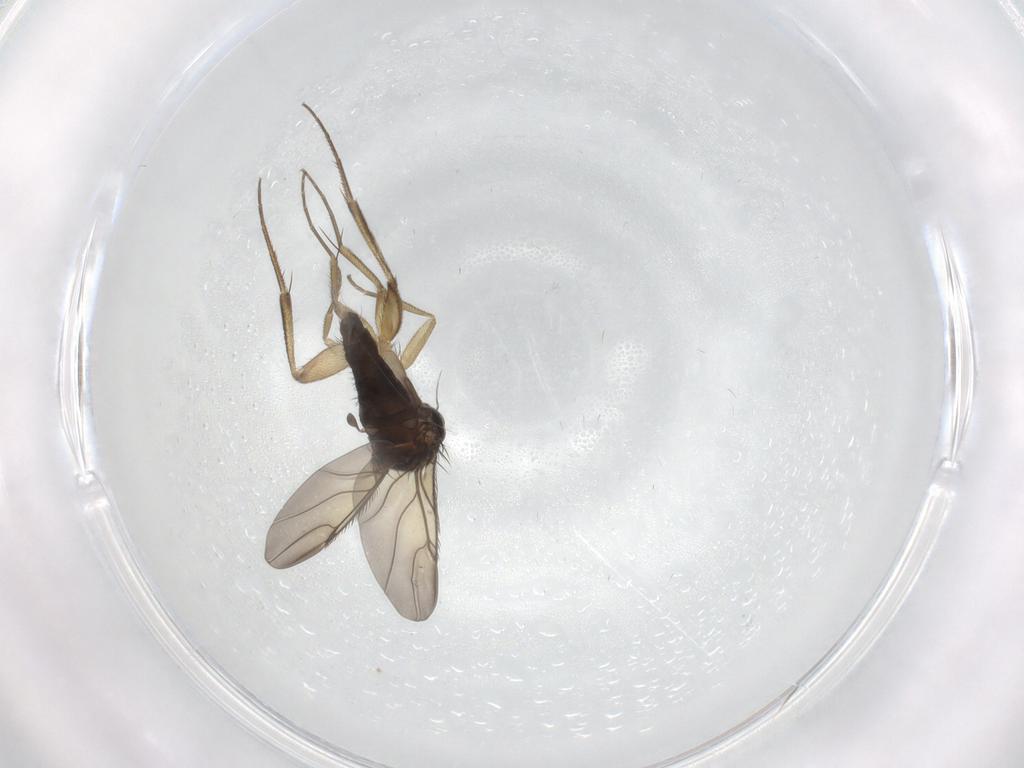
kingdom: Animalia
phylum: Arthropoda
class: Insecta
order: Diptera
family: Phoridae
